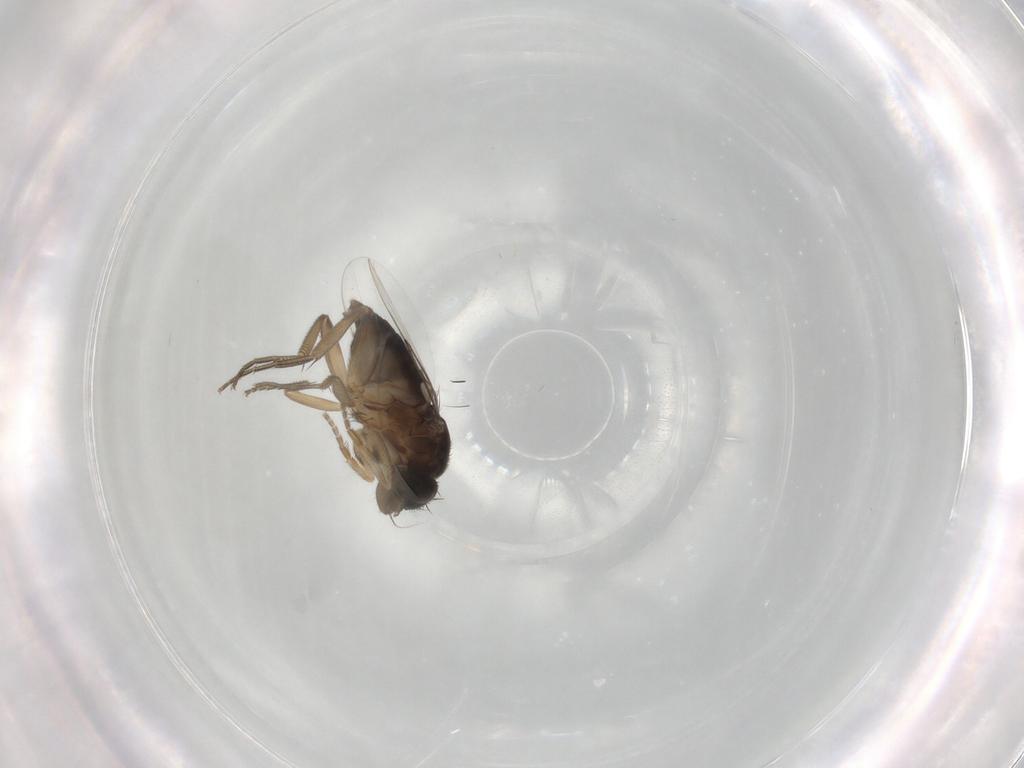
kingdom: Animalia
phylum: Arthropoda
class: Insecta
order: Diptera
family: Phoridae
